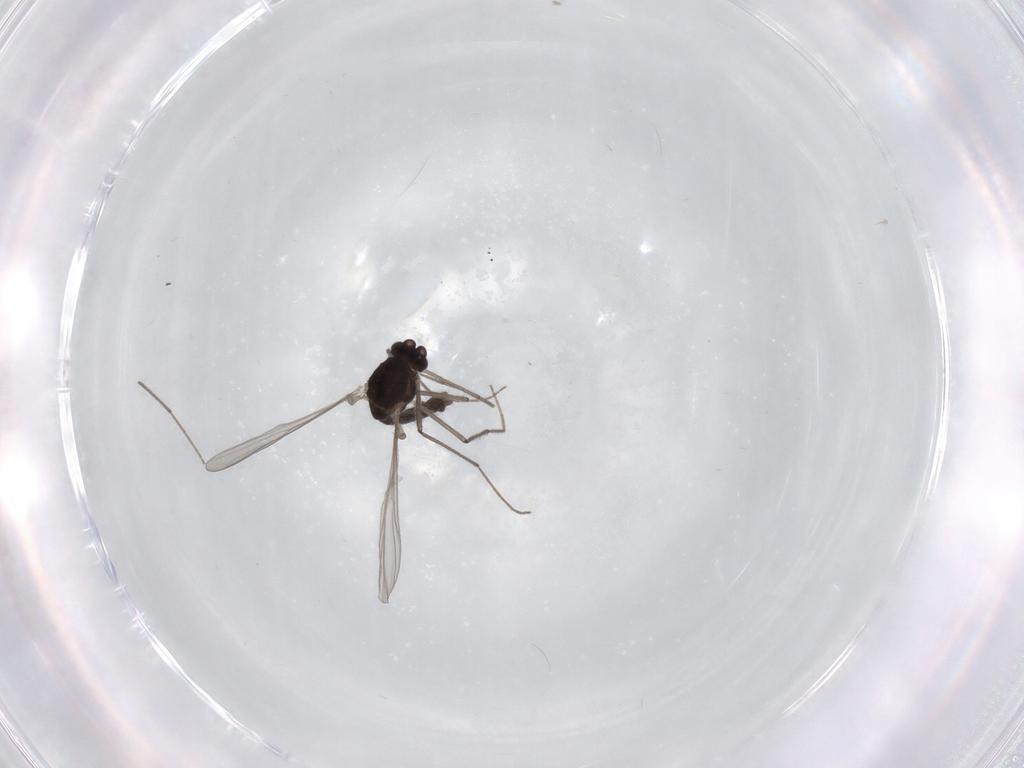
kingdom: Animalia
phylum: Arthropoda
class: Insecta
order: Diptera
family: Chironomidae
